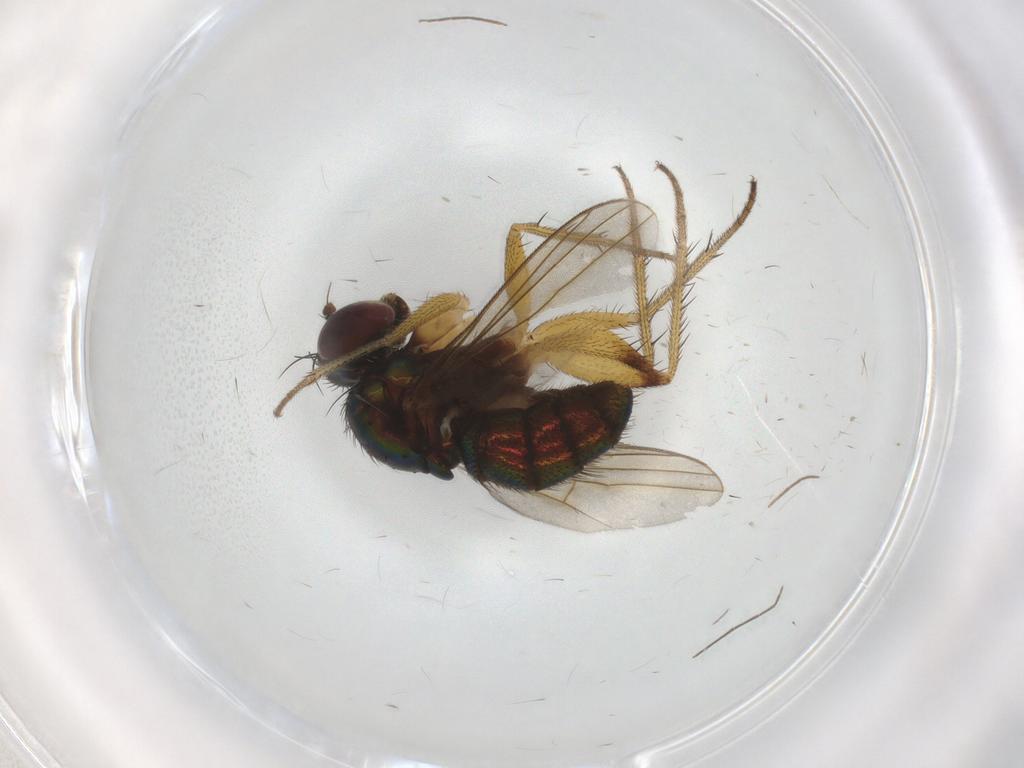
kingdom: Animalia
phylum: Arthropoda
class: Insecta
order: Diptera
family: Dolichopodidae
